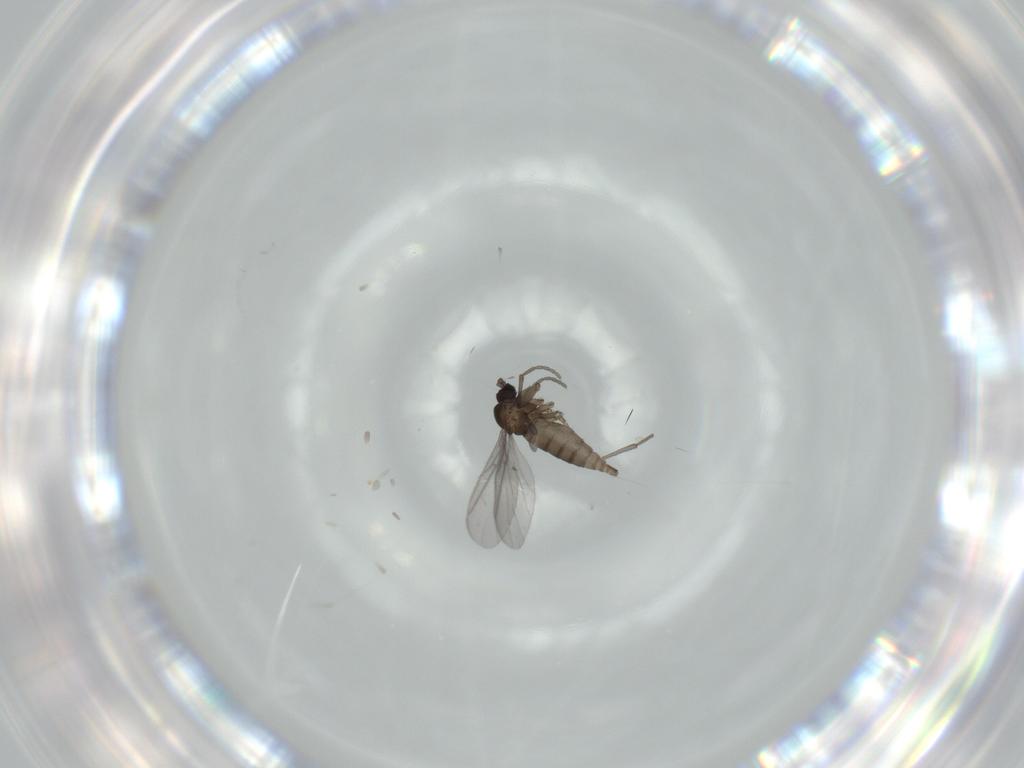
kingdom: Animalia
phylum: Arthropoda
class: Insecta
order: Diptera
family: Sciaridae
